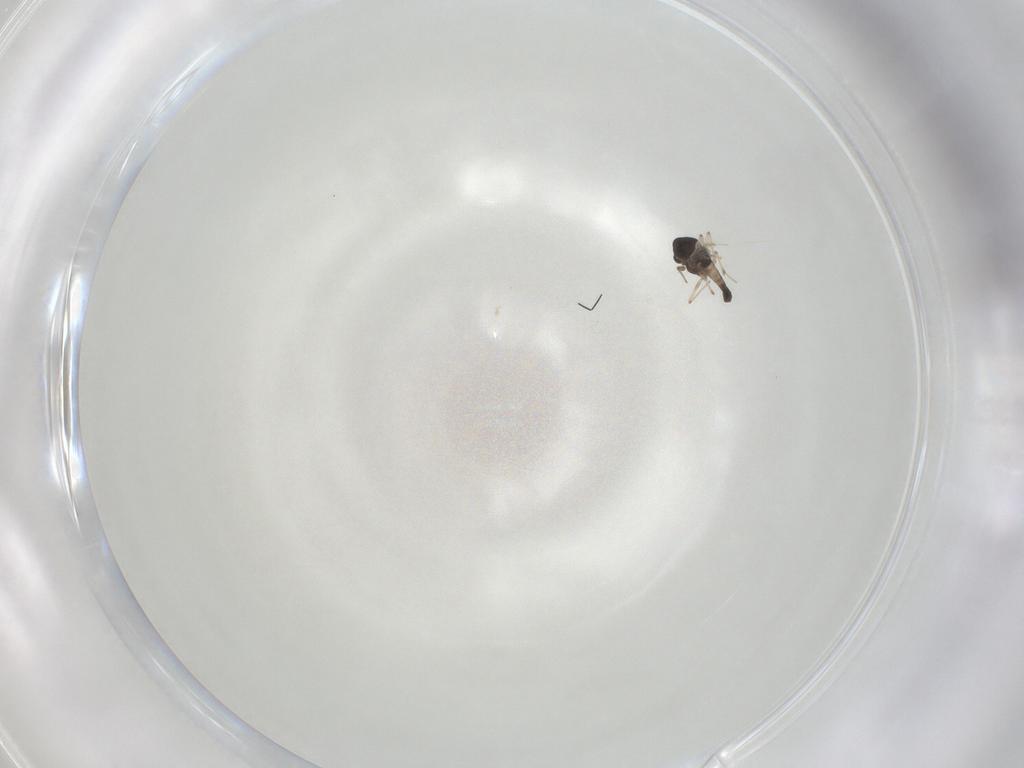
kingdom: Animalia
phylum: Arthropoda
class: Insecta
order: Diptera
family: Chironomidae
